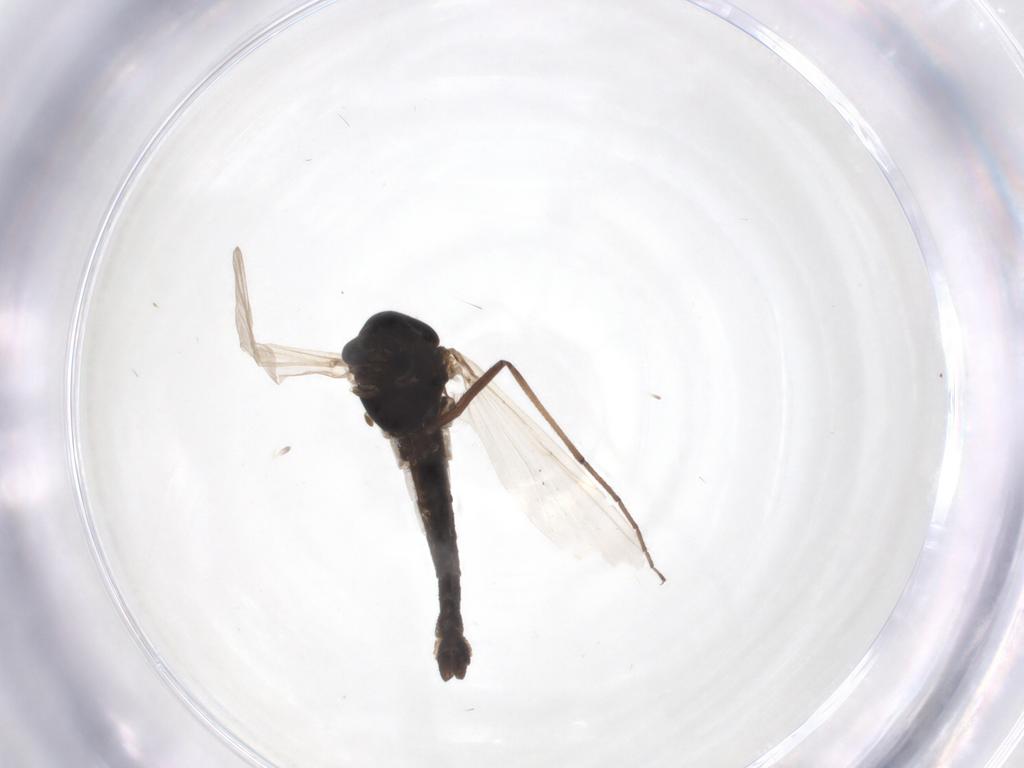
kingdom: Animalia
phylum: Arthropoda
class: Insecta
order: Diptera
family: Chironomidae
